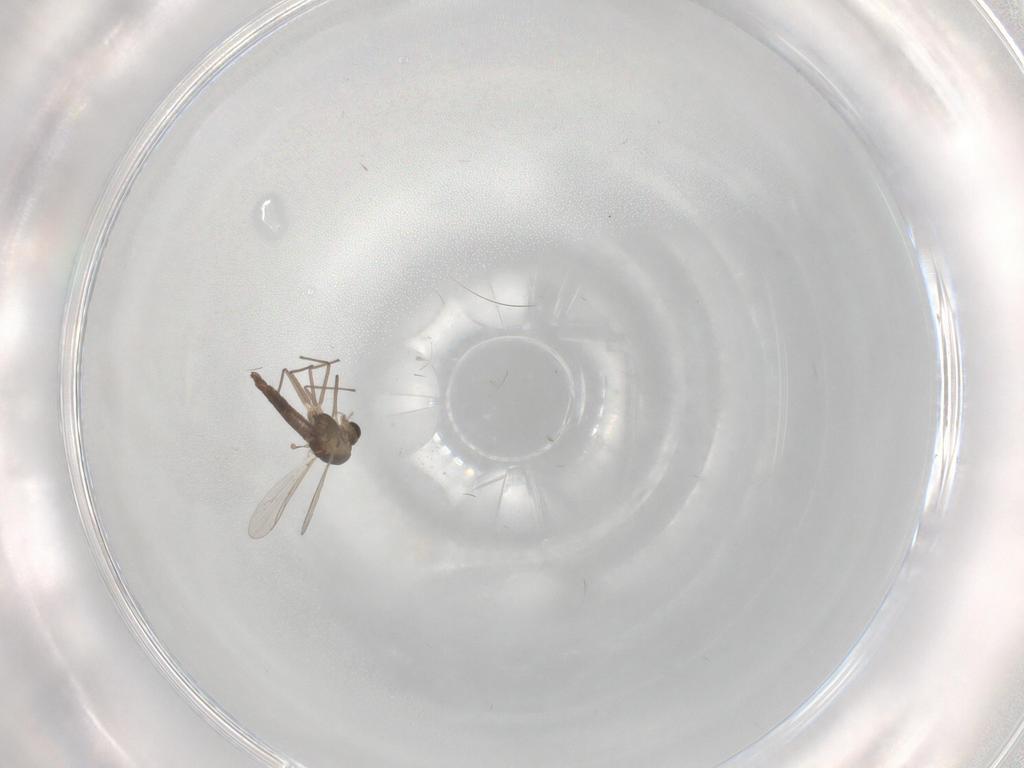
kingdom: Animalia
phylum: Arthropoda
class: Insecta
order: Diptera
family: Chironomidae
